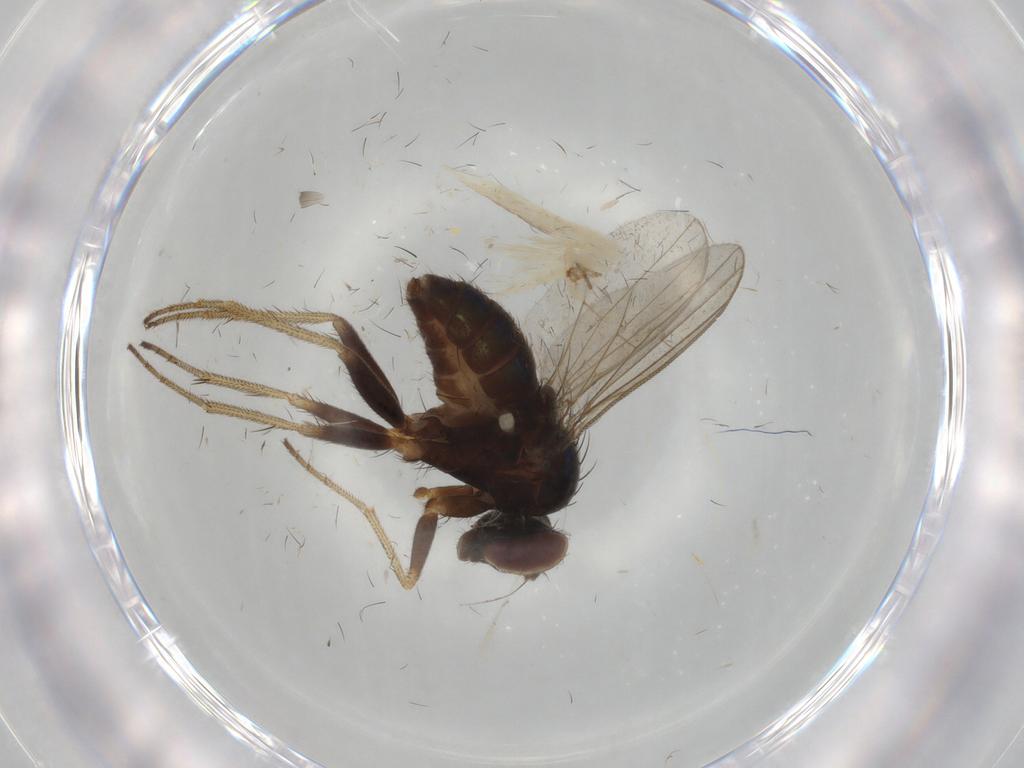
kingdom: Animalia
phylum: Arthropoda
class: Insecta
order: Diptera
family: Dolichopodidae
